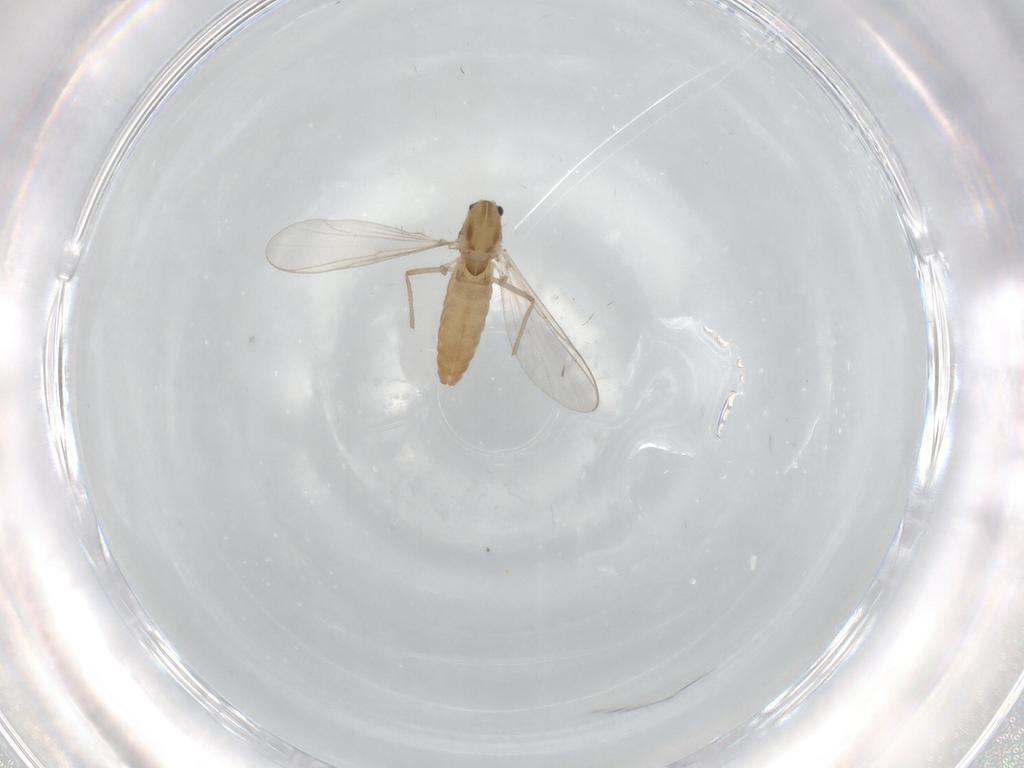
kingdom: Animalia
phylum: Arthropoda
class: Insecta
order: Diptera
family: Chironomidae
